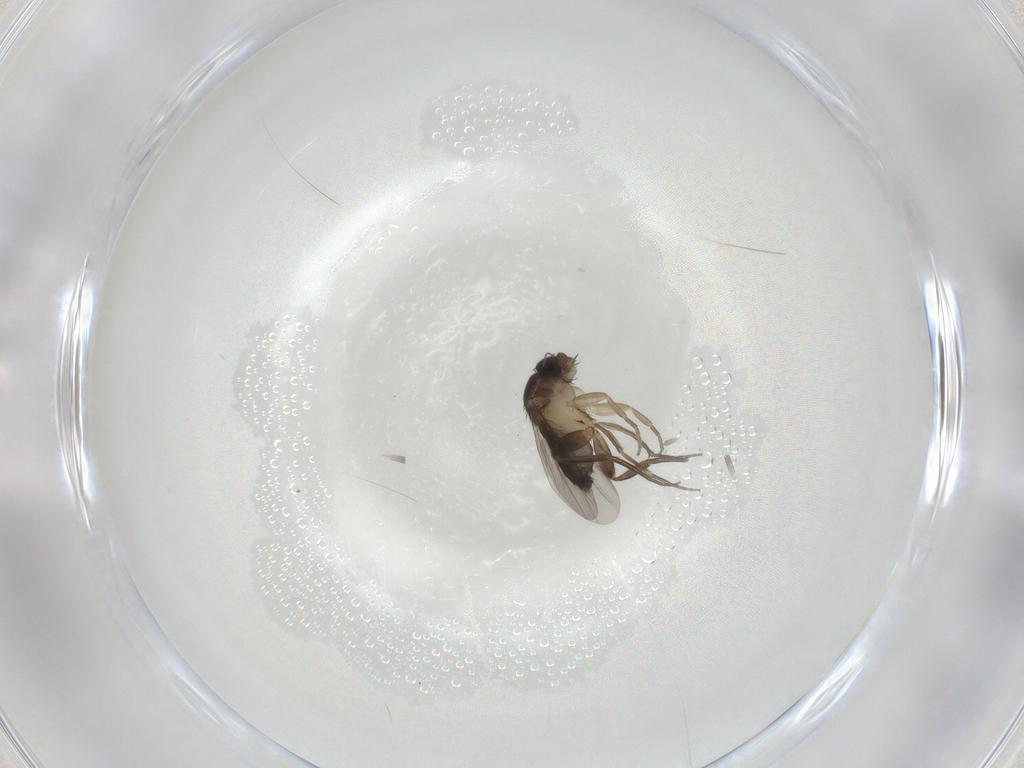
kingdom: Animalia
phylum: Arthropoda
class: Insecta
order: Diptera
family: Phoridae
